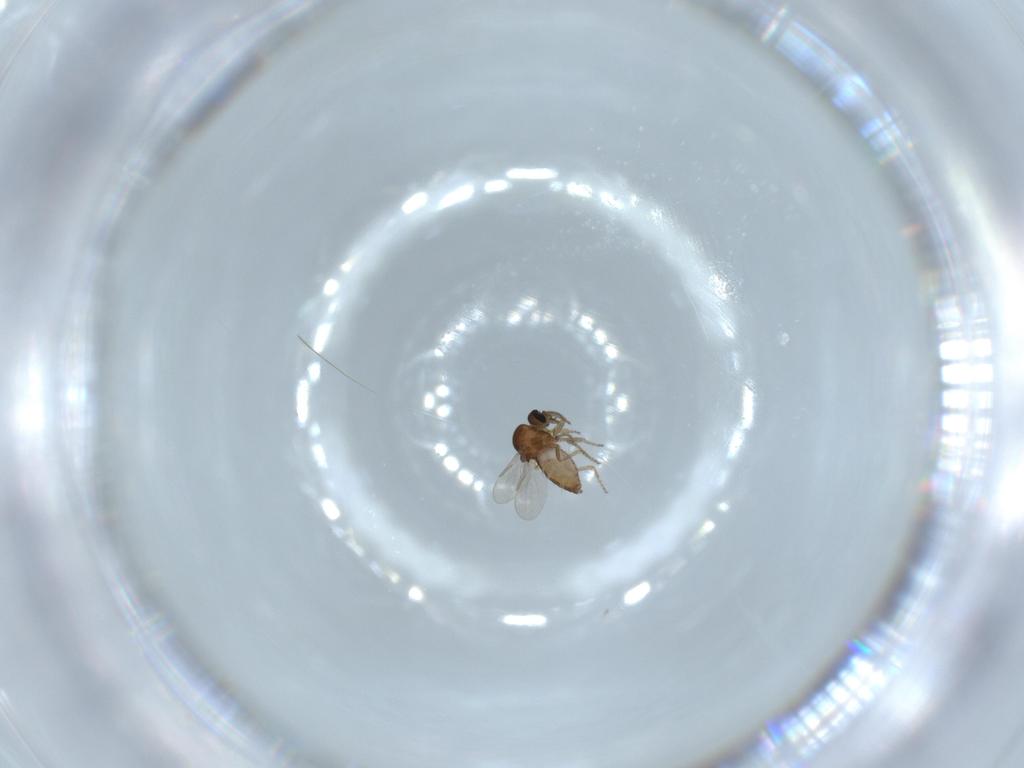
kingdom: Animalia
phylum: Arthropoda
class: Insecta
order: Diptera
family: Ceratopogonidae
